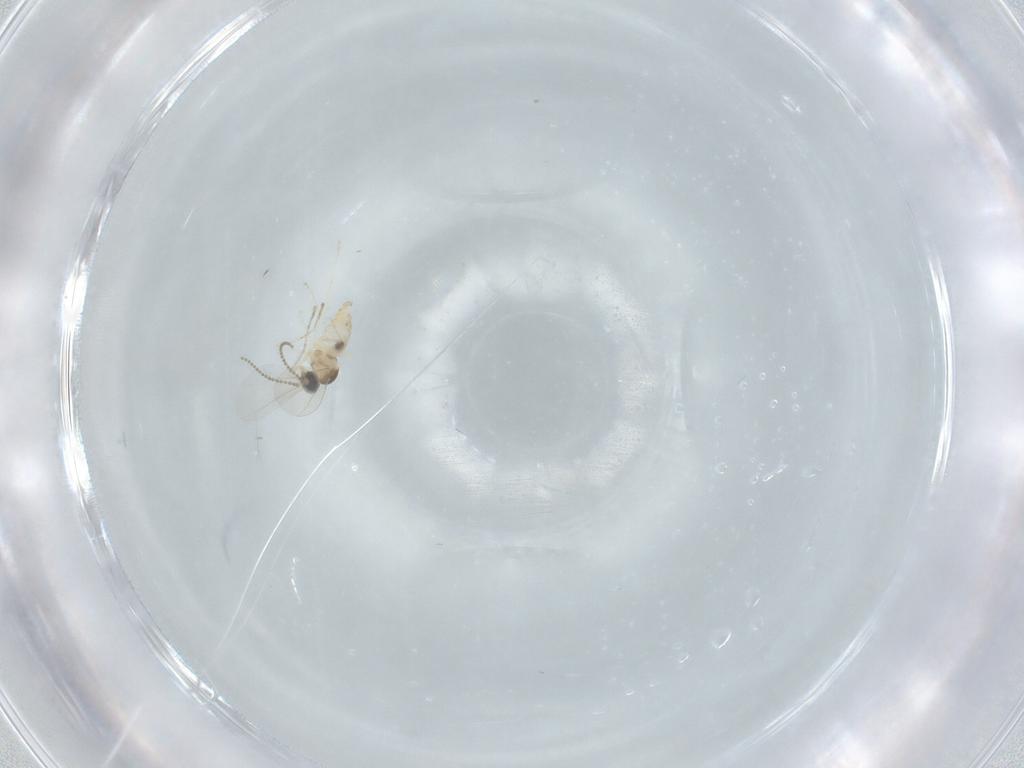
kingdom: Animalia
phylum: Arthropoda
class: Insecta
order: Diptera
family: Cecidomyiidae
